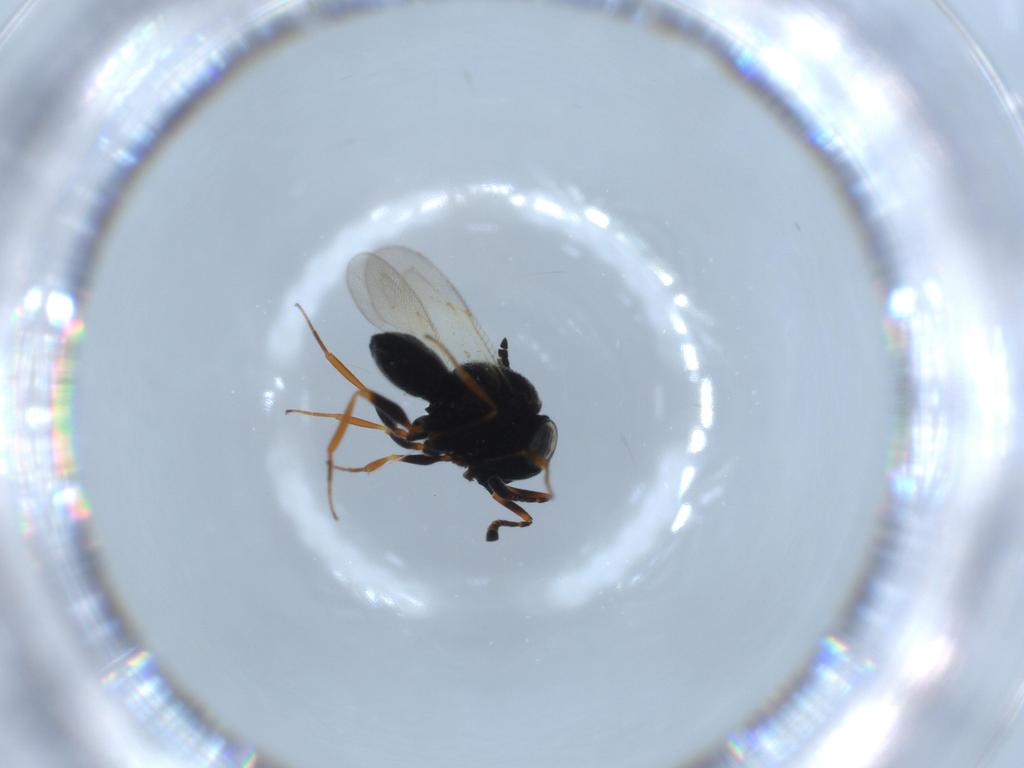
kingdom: Animalia
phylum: Arthropoda
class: Insecta
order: Hymenoptera
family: Scelionidae
